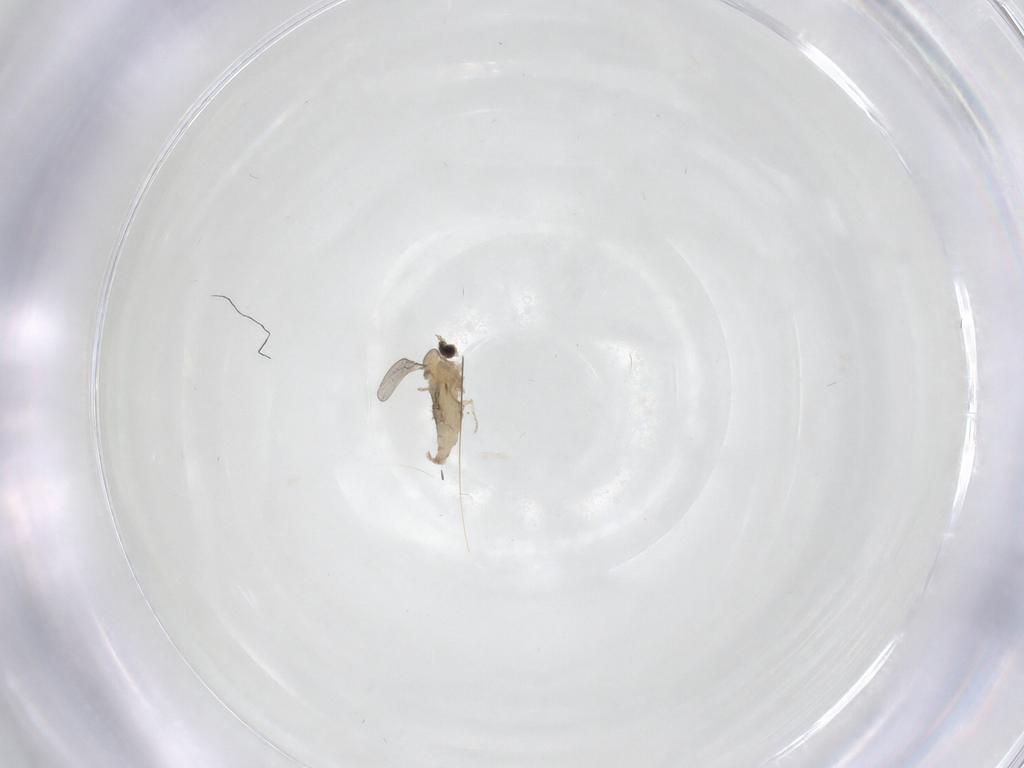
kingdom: Animalia
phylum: Arthropoda
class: Insecta
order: Diptera
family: Cecidomyiidae
